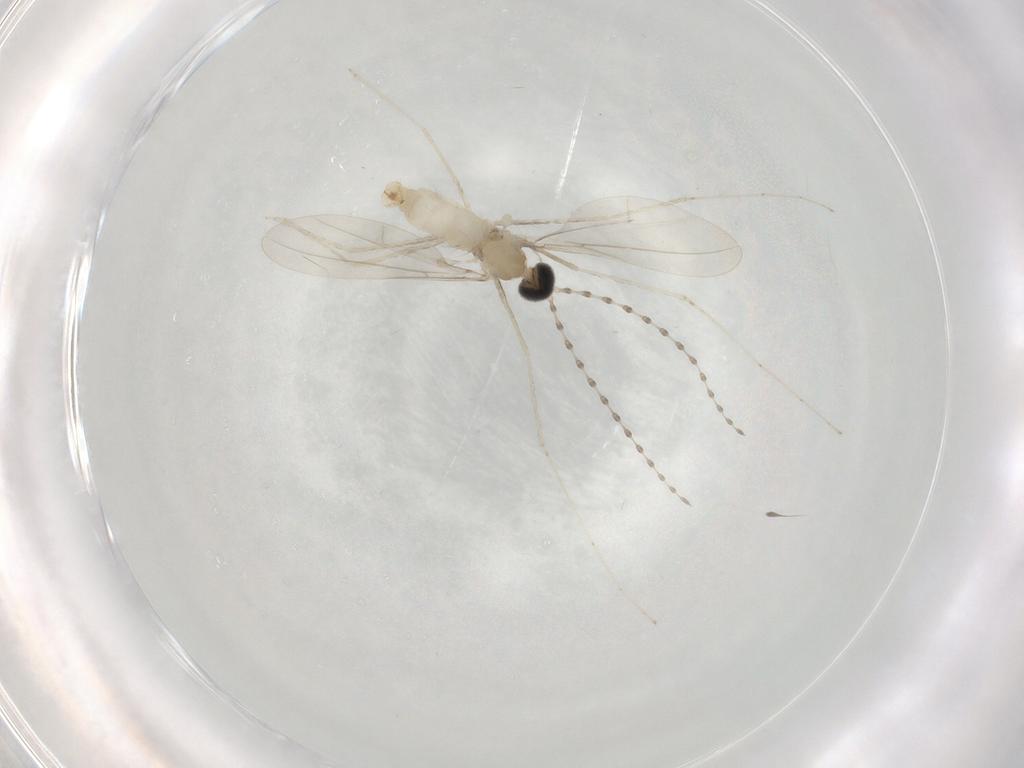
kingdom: Animalia
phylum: Arthropoda
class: Insecta
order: Diptera
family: Cecidomyiidae
